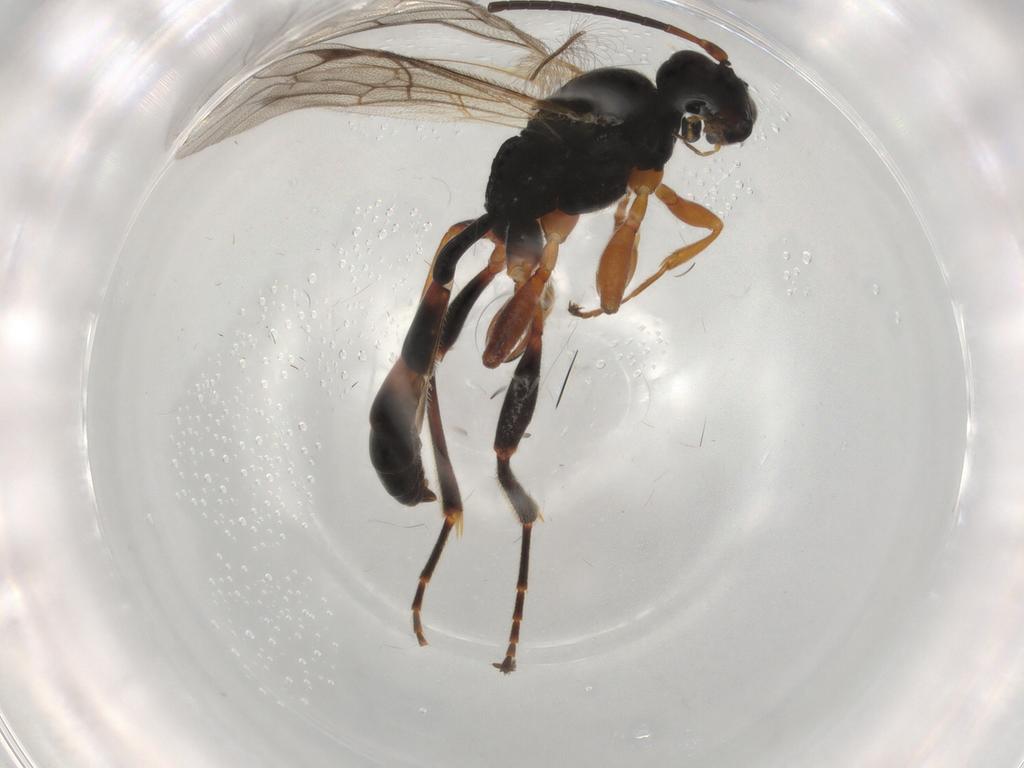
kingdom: Animalia
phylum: Arthropoda
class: Insecta
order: Hymenoptera
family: Ichneumonidae
